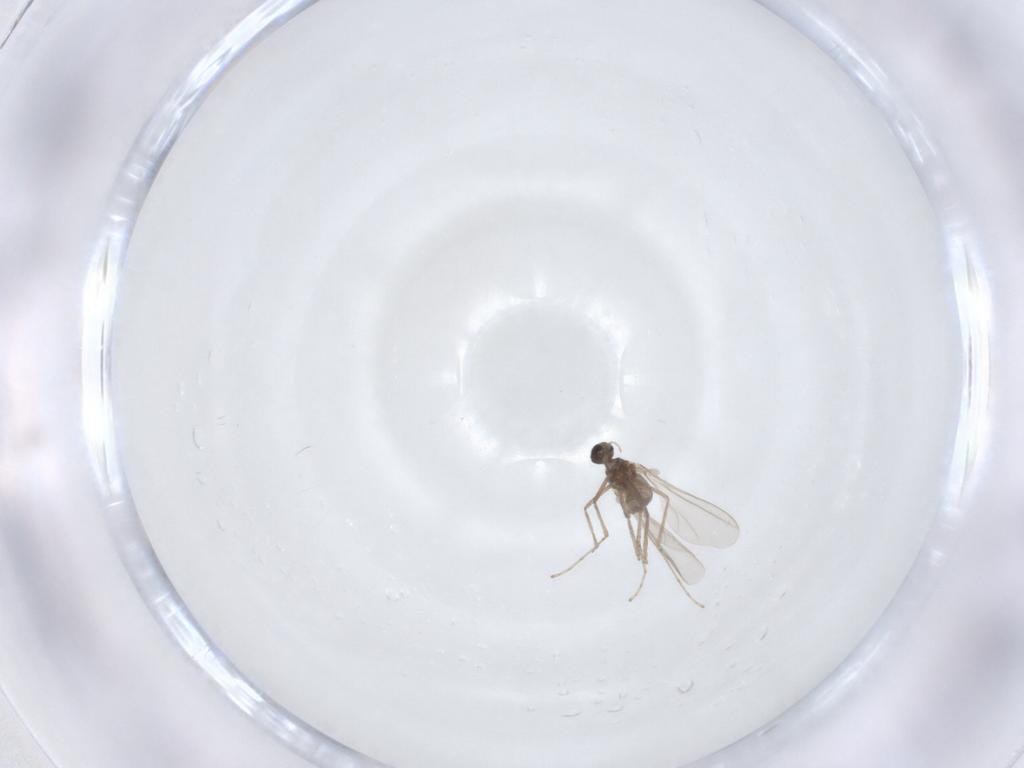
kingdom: Animalia
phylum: Arthropoda
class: Insecta
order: Diptera
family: Cecidomyiidae
